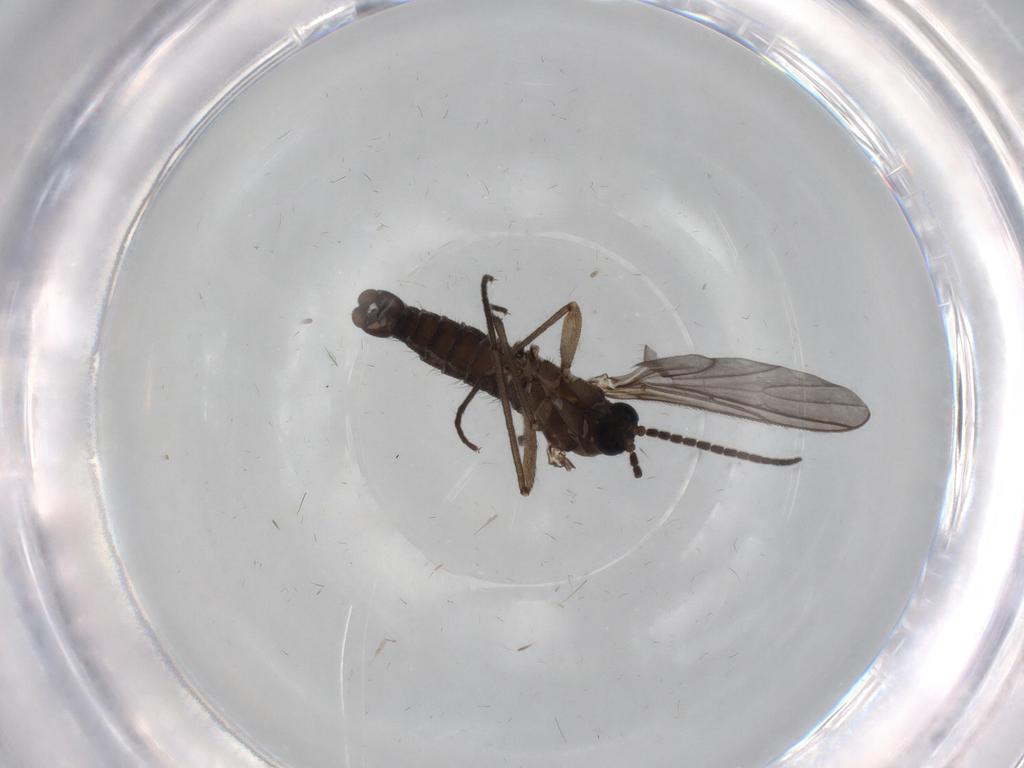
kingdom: Animalia
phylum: Arthropoda
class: Insecta
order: Diptera
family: Sciaridae
